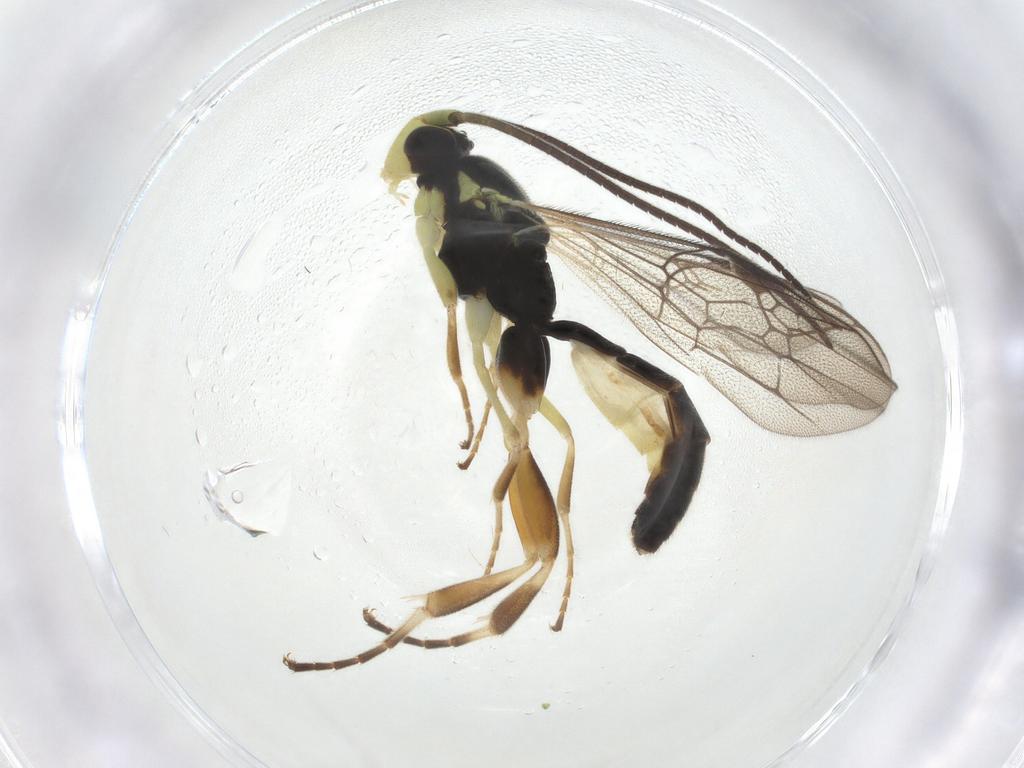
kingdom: Animalia
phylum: Arthropoda
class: Insecta
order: Hymenoptera
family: Ichneumonidae
